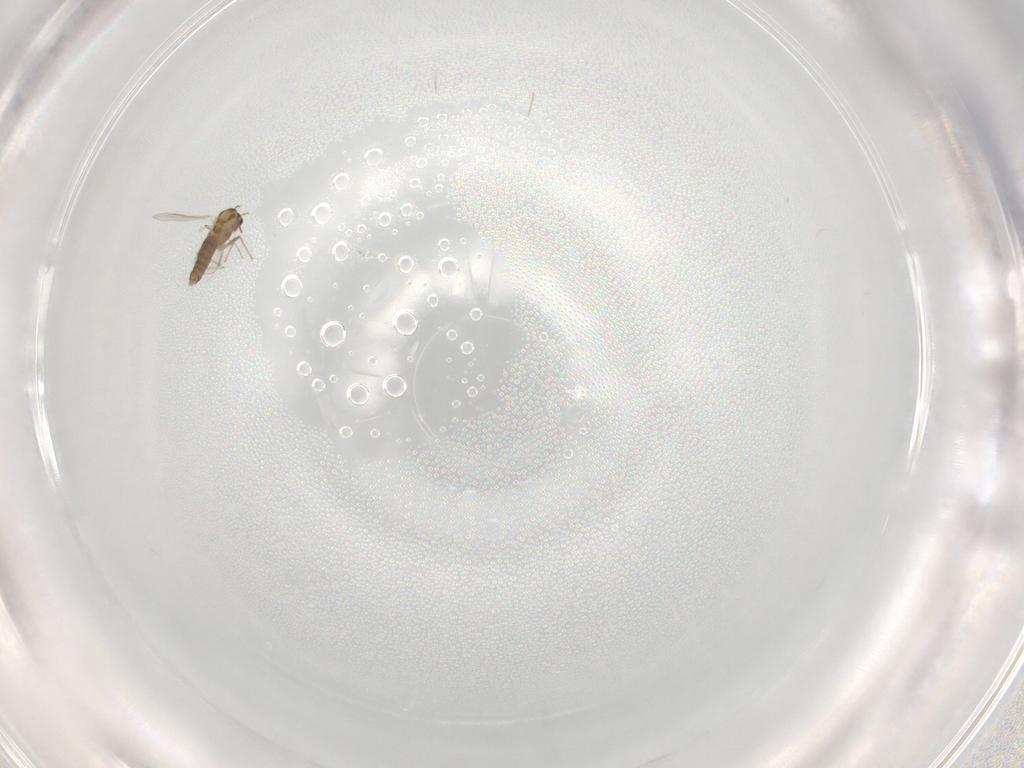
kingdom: Animalia
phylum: Arthropoda
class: Insecta
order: Diptera
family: Chironomidae
